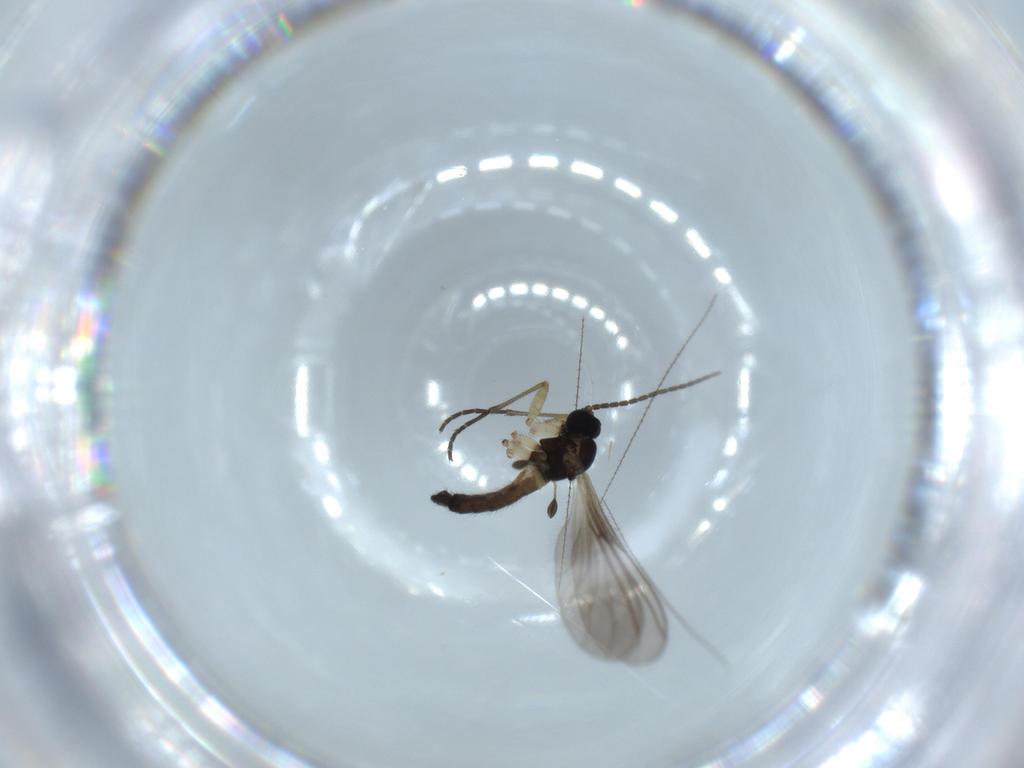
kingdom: Animalia
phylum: Arthropoda
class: Insecta
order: Diptera
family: Sciaridae
